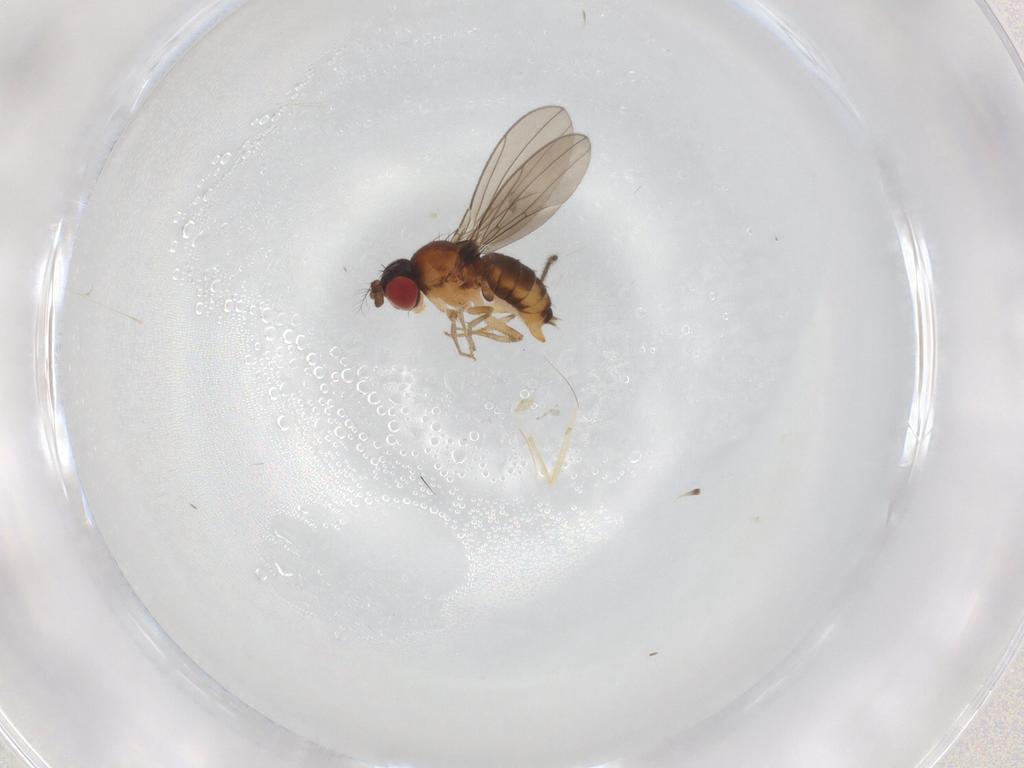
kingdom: Animalia
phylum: Arthropoda
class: Insecta
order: Diptera
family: Drosophilidae
